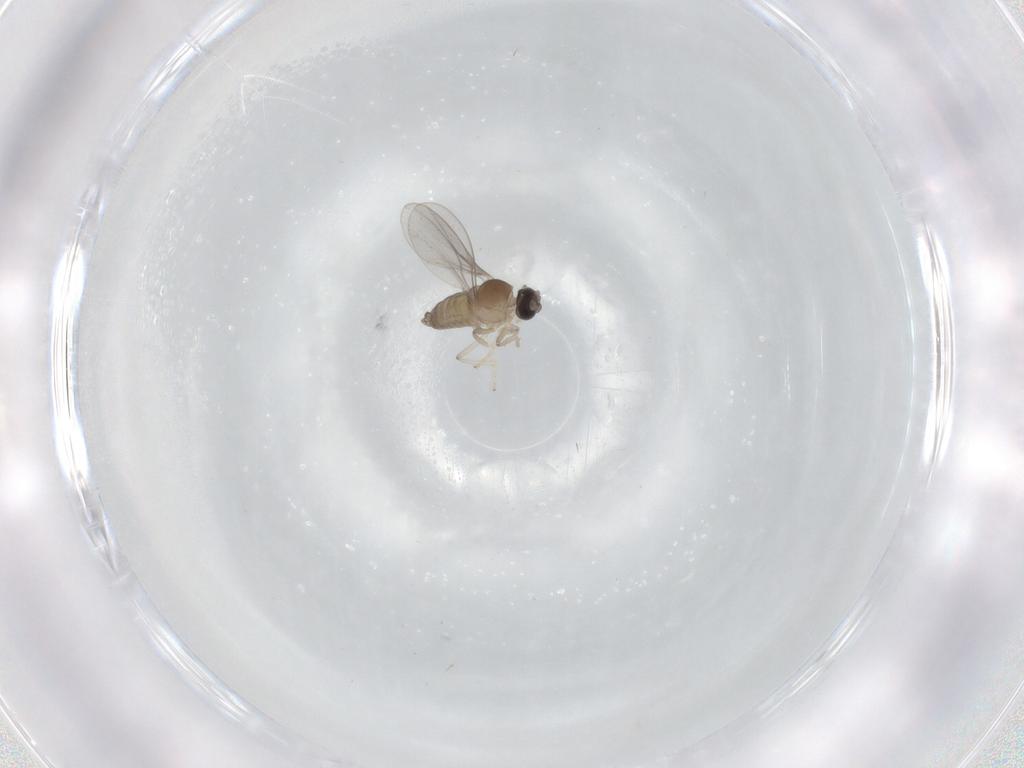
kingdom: Animalia
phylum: Arthropoda
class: Insecta
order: Diptera
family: Cecidomyiidae
